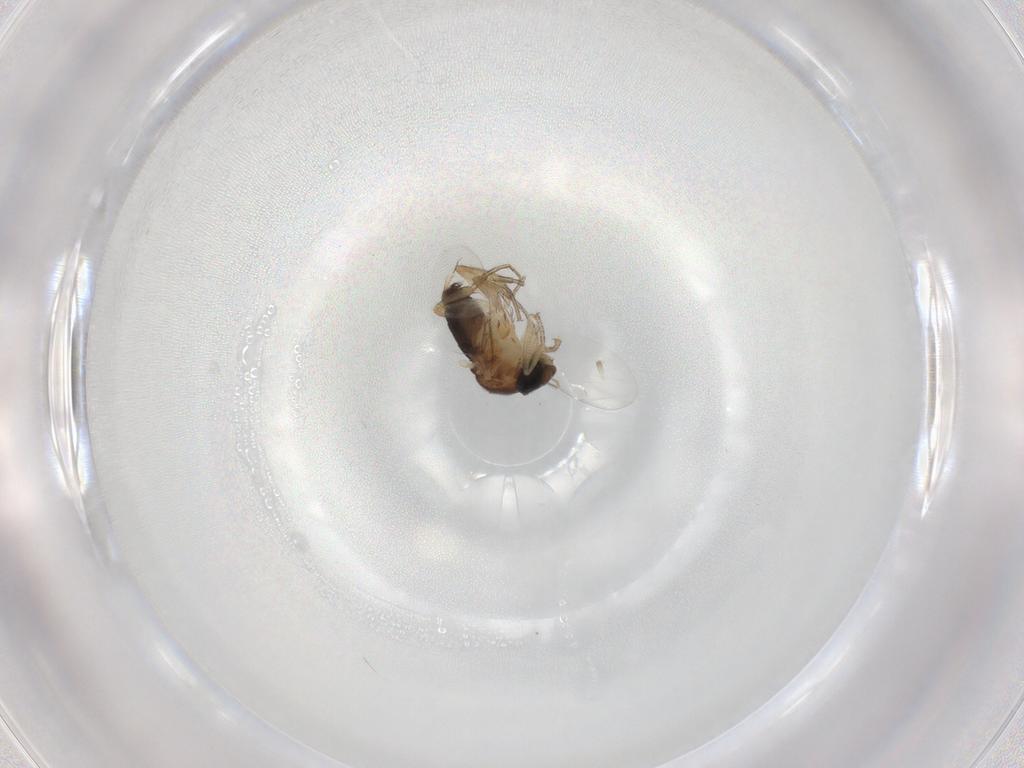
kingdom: Animalia
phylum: Arthropoda
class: Insecta
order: Diptera
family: Phoridae
